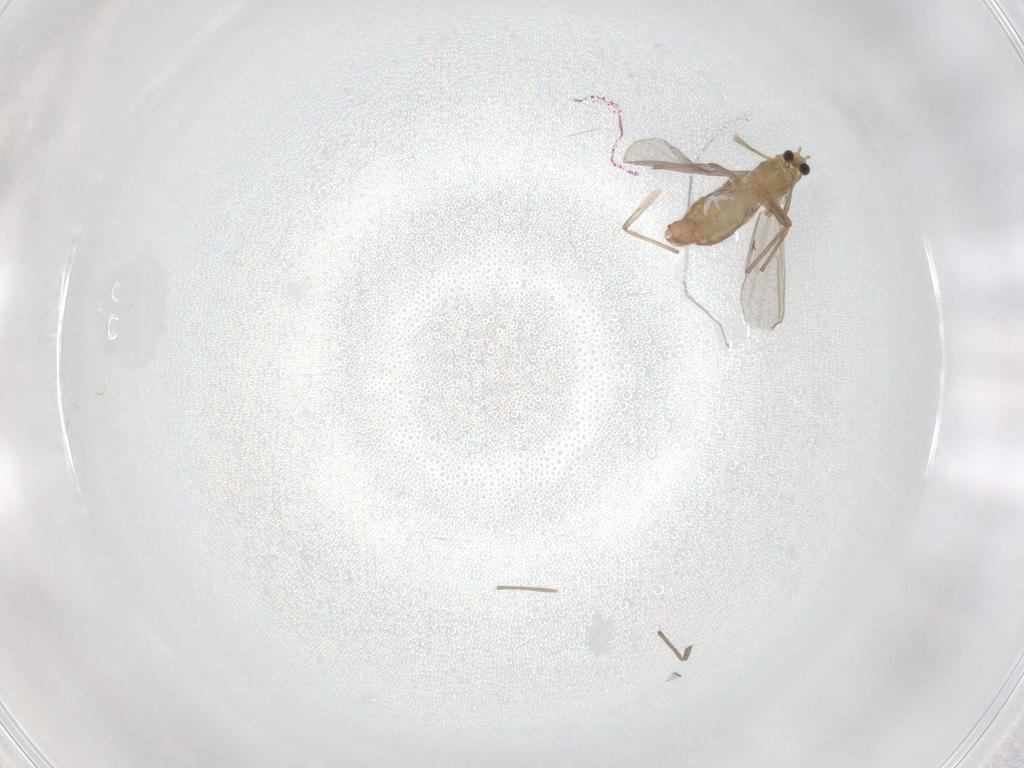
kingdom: Animalia
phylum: Arthropoda
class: Insecta
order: Diptera
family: Chironomidae
